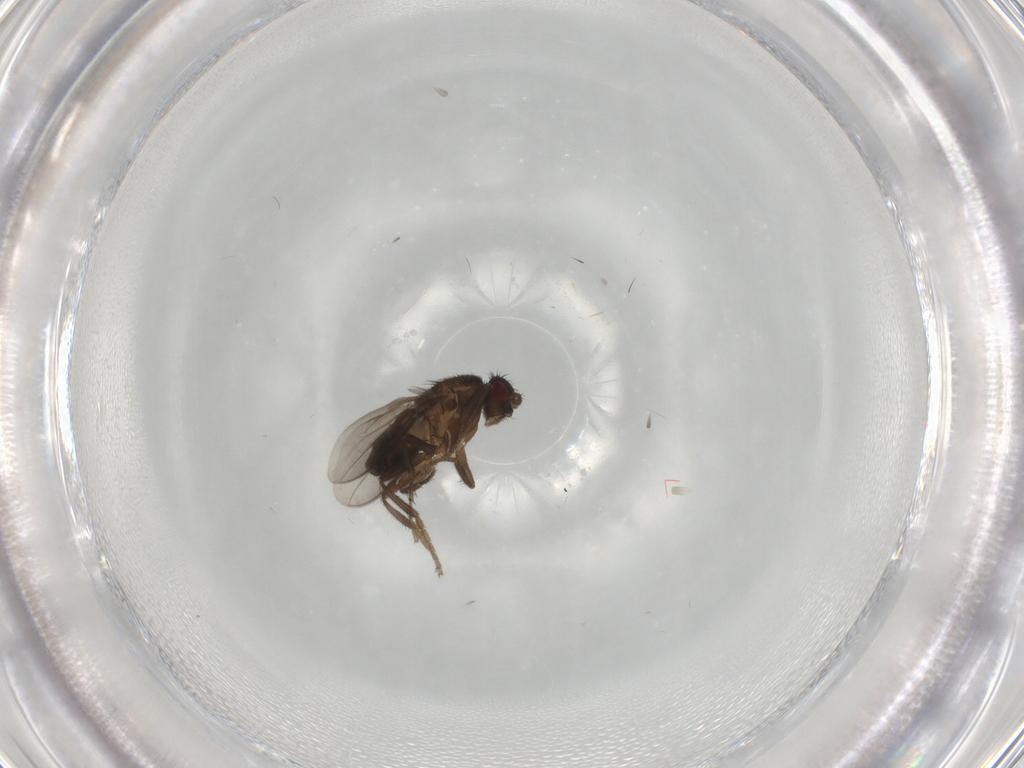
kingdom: Animalia
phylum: Arthropoda
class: Insecta
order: Diptera
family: Sphaeroceridae
